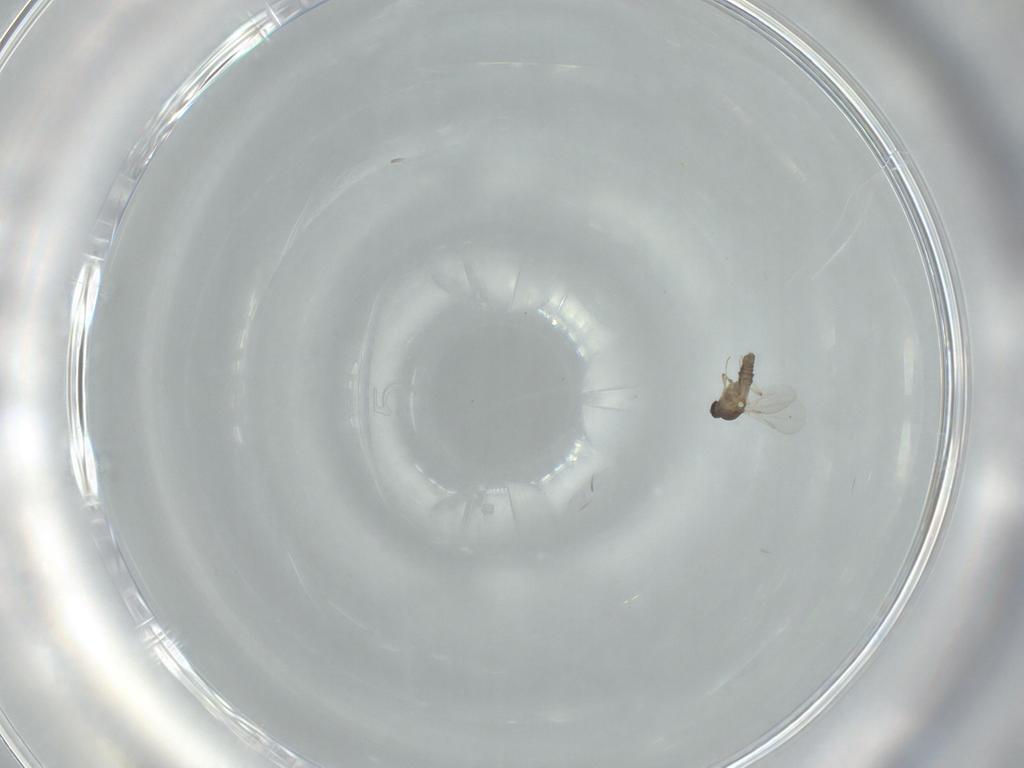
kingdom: Animalia
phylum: Arthropoda
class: Insecta
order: Diptera
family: Ceratopogonidae
